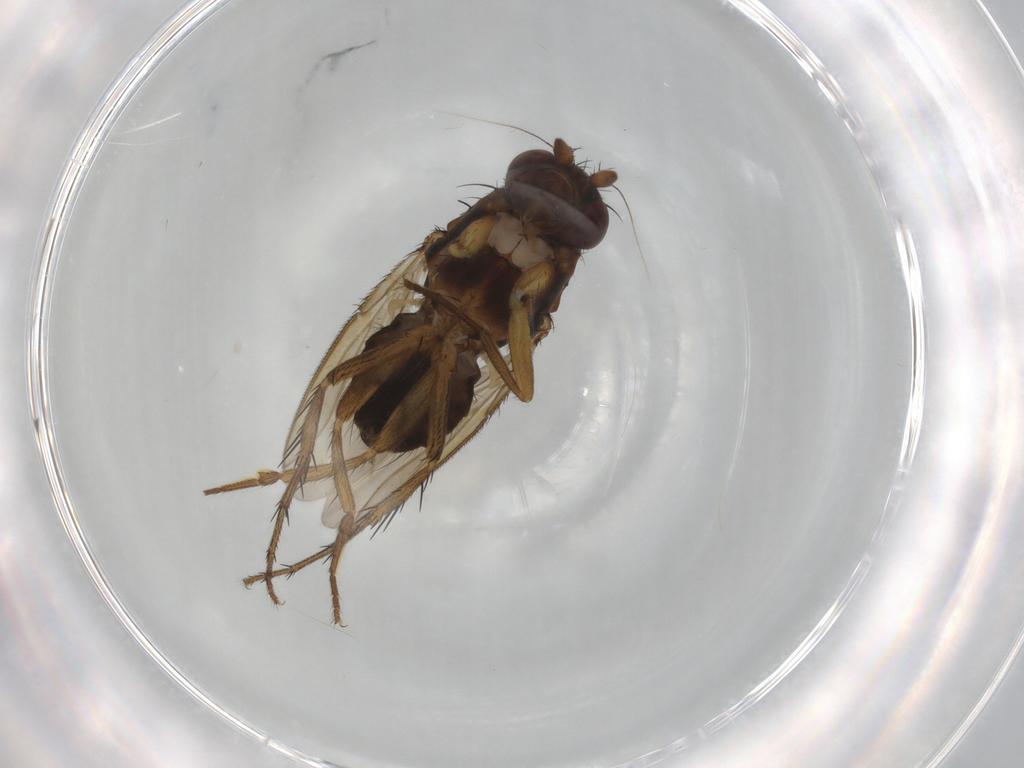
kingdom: Animalia
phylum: Arthropoda
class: Insecta
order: Diptera
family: Sphaeroceridae
